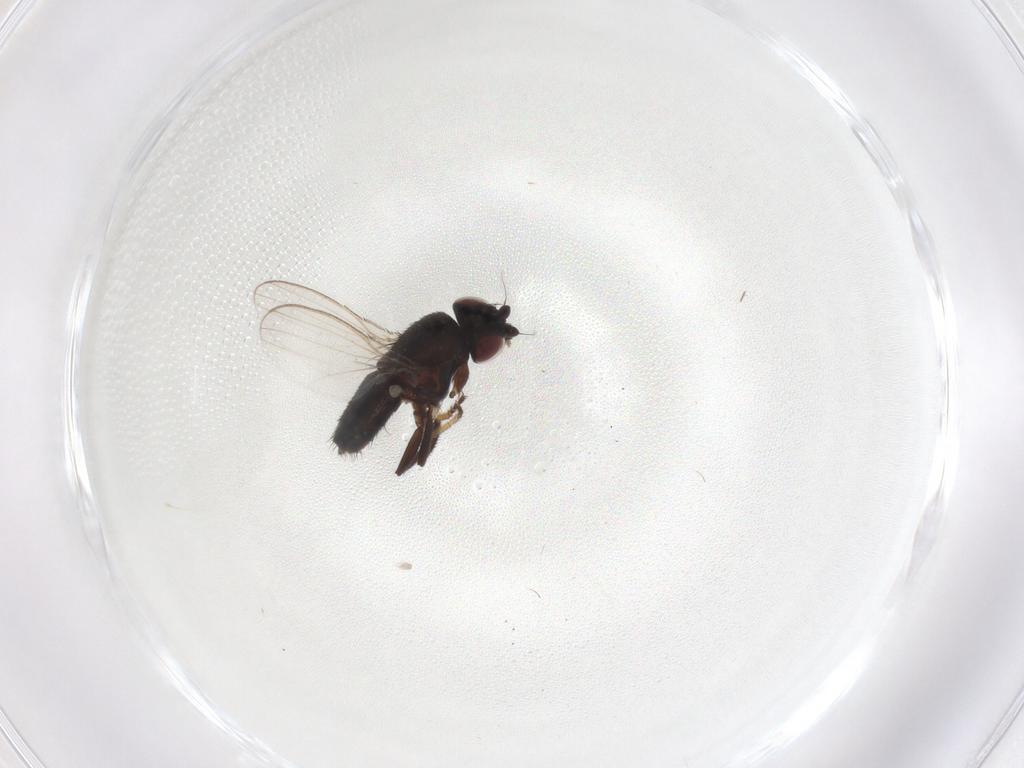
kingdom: Animalia
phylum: Arthropoda
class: Insecta
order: Diptera
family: Milichiidae
